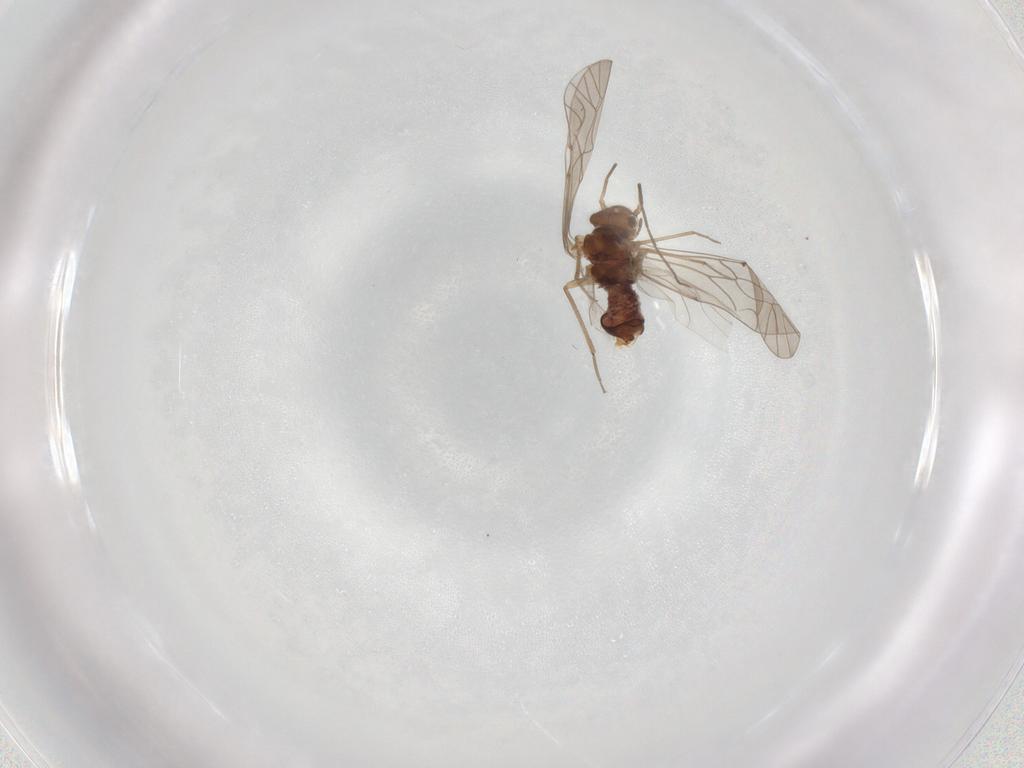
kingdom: Animalia
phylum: Arthropoda
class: Insecta
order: Psocodea
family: Lachesillidae
